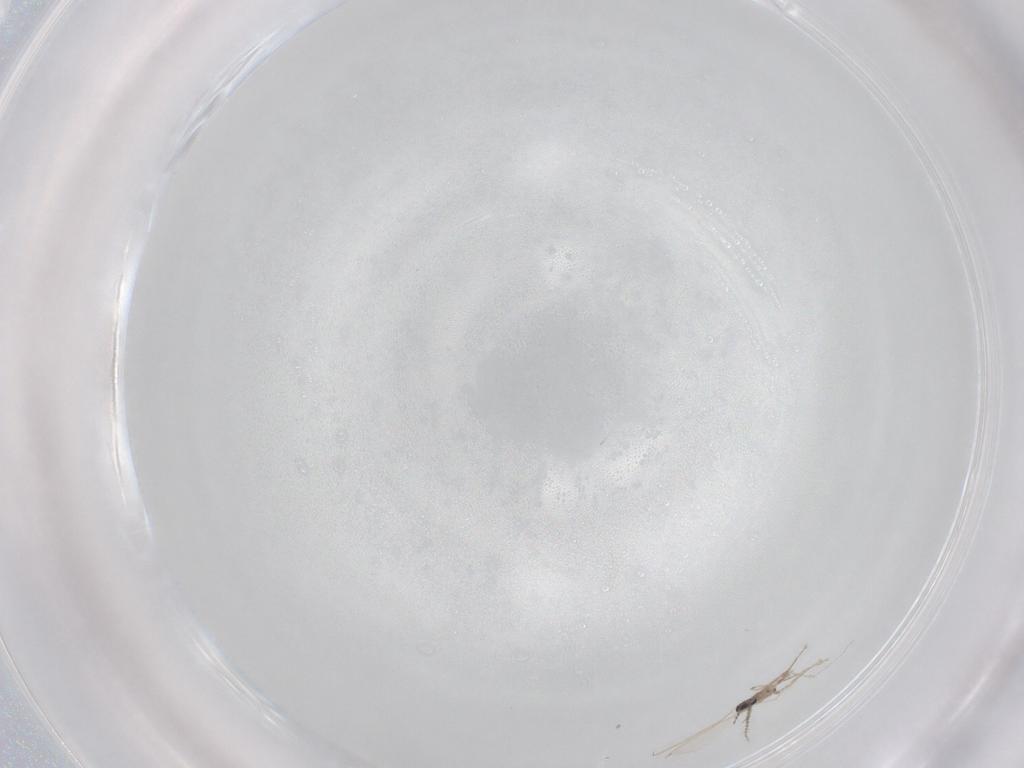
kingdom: Animalia
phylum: Arthropoda
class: Insecta
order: Diptera
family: Cecidomyiidae
